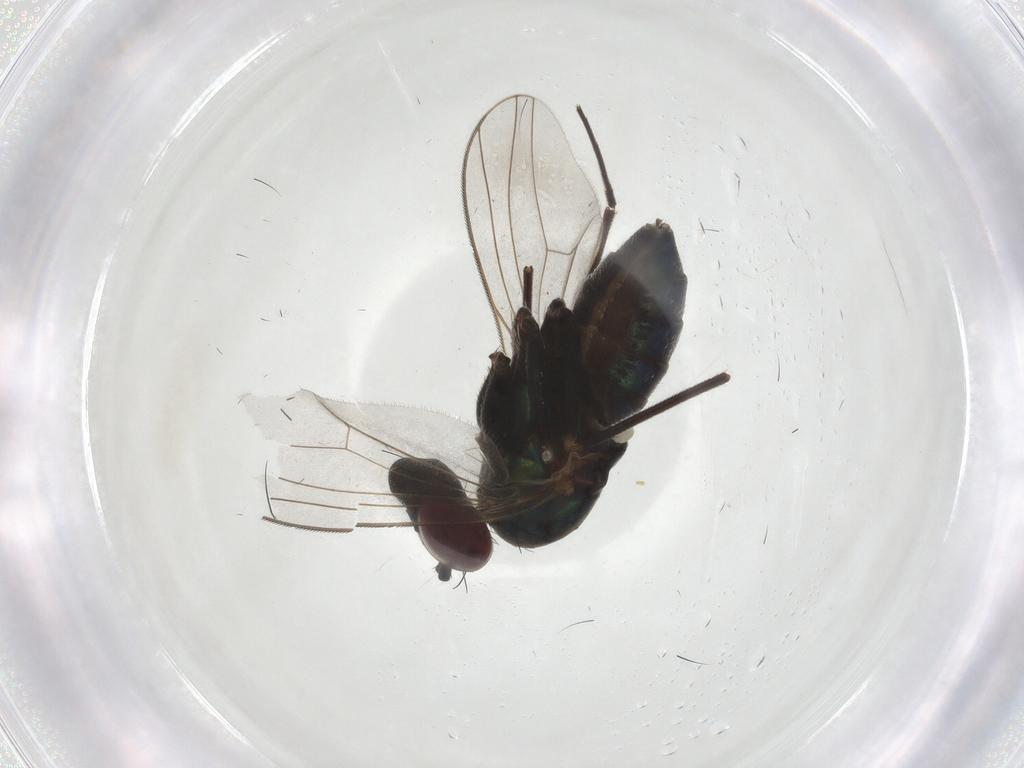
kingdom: Animalia
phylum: Arthropoda
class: Insecta
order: Diptera
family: Dolichopodidae
